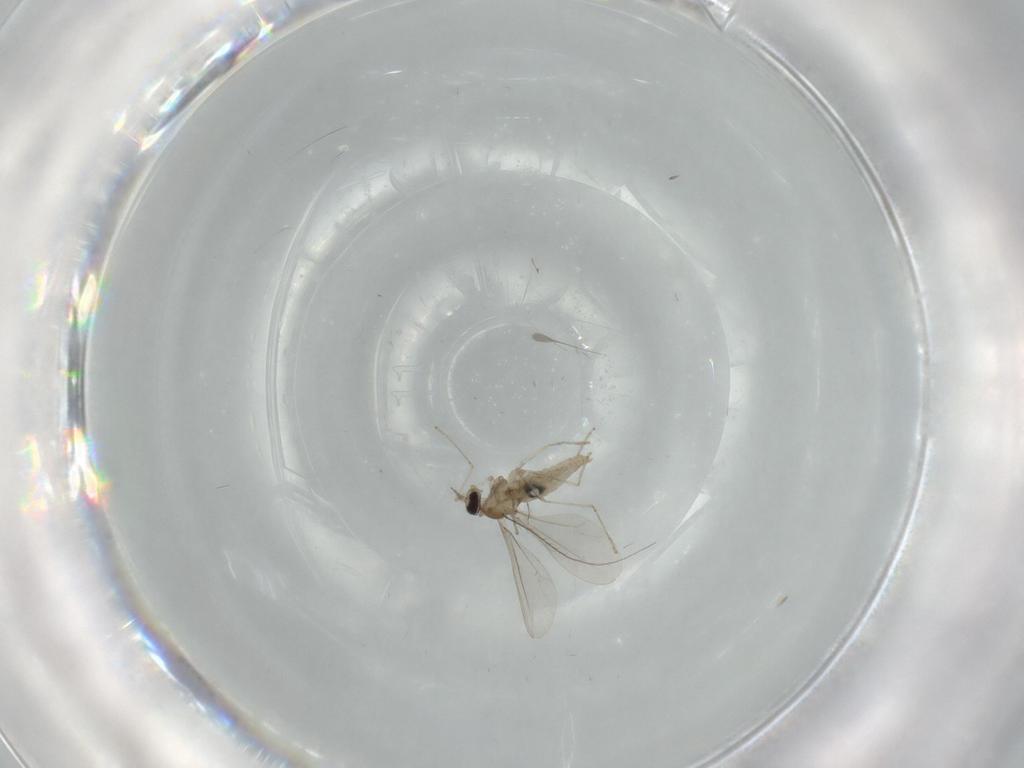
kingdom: Animalia
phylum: Arthropoda
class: Insecta
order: Diptera
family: Cecidomyiidae
